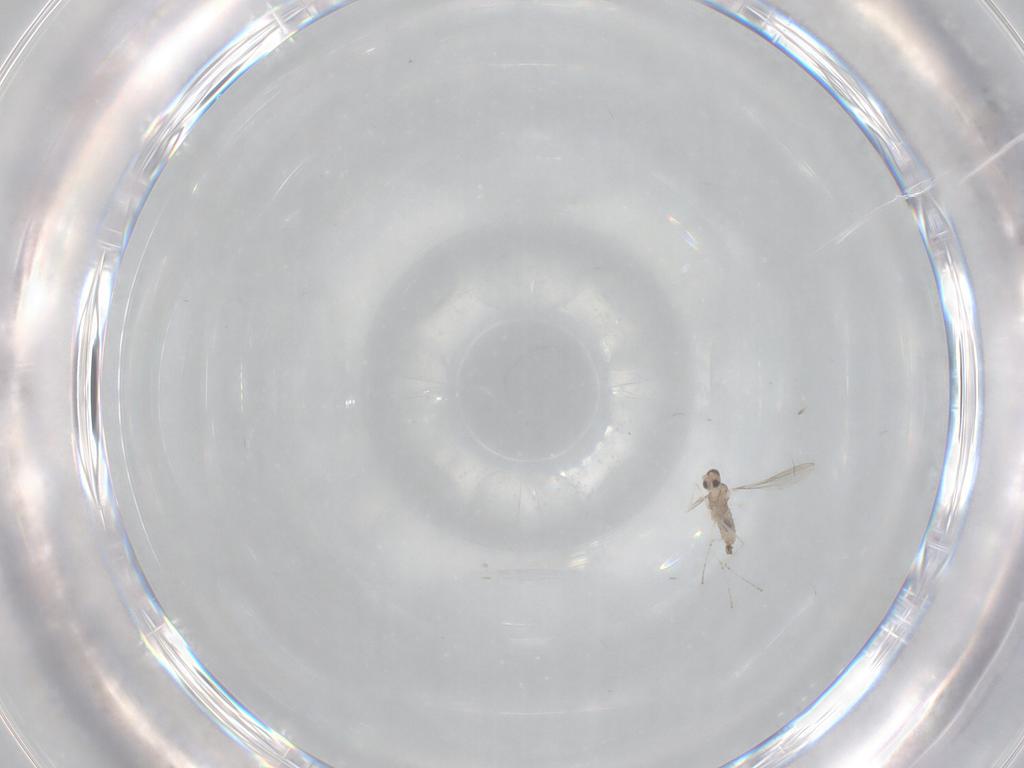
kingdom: Animalia
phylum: Arthropoda
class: Insecta
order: Diptera
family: Cecidomyiidae
